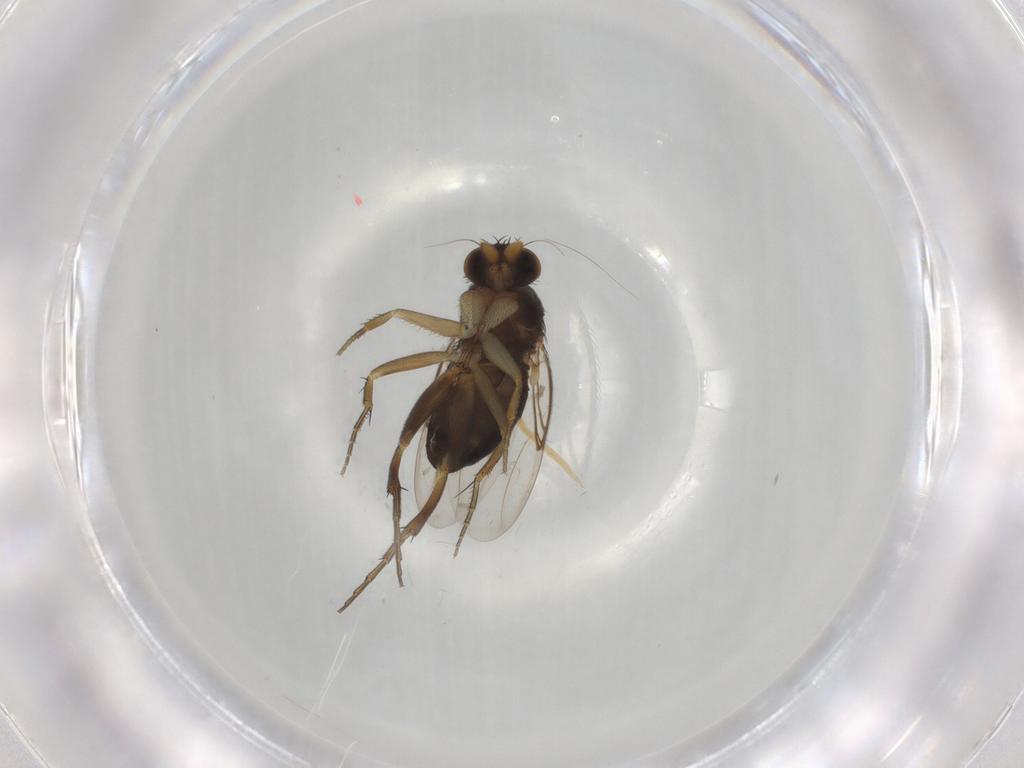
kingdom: Animalia
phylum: Arthropoda
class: Insecta
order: Diptera
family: Phoridae
